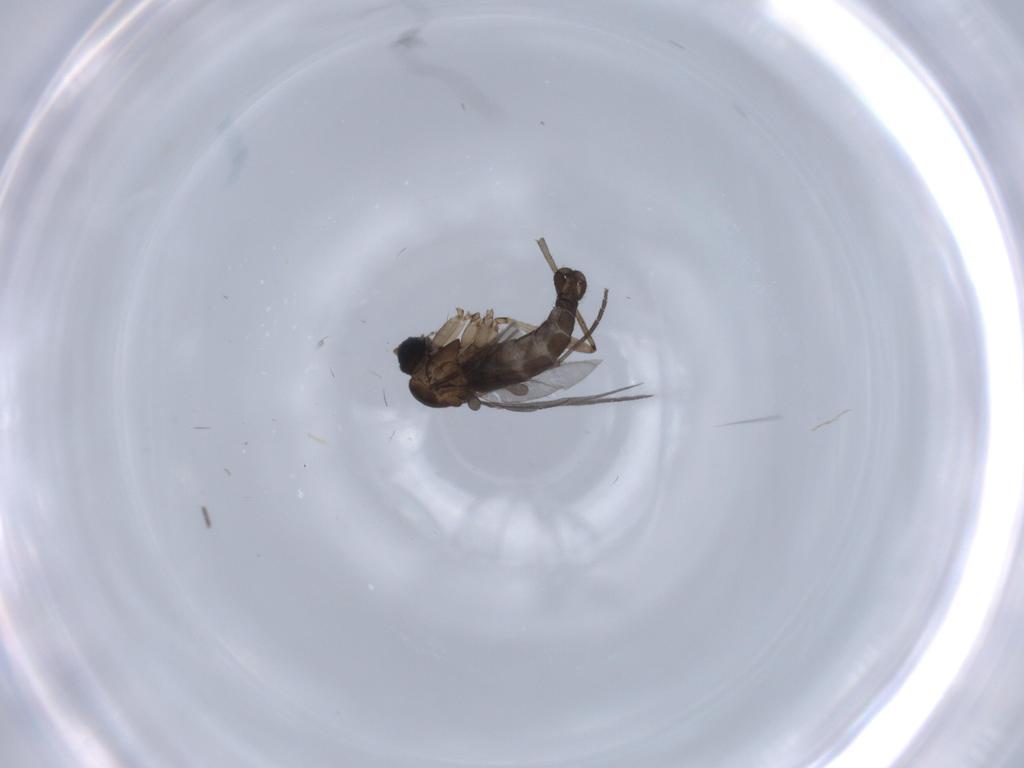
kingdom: Animalia
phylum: Arthropoda
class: Insecta
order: Diptera
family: Sciaridae
